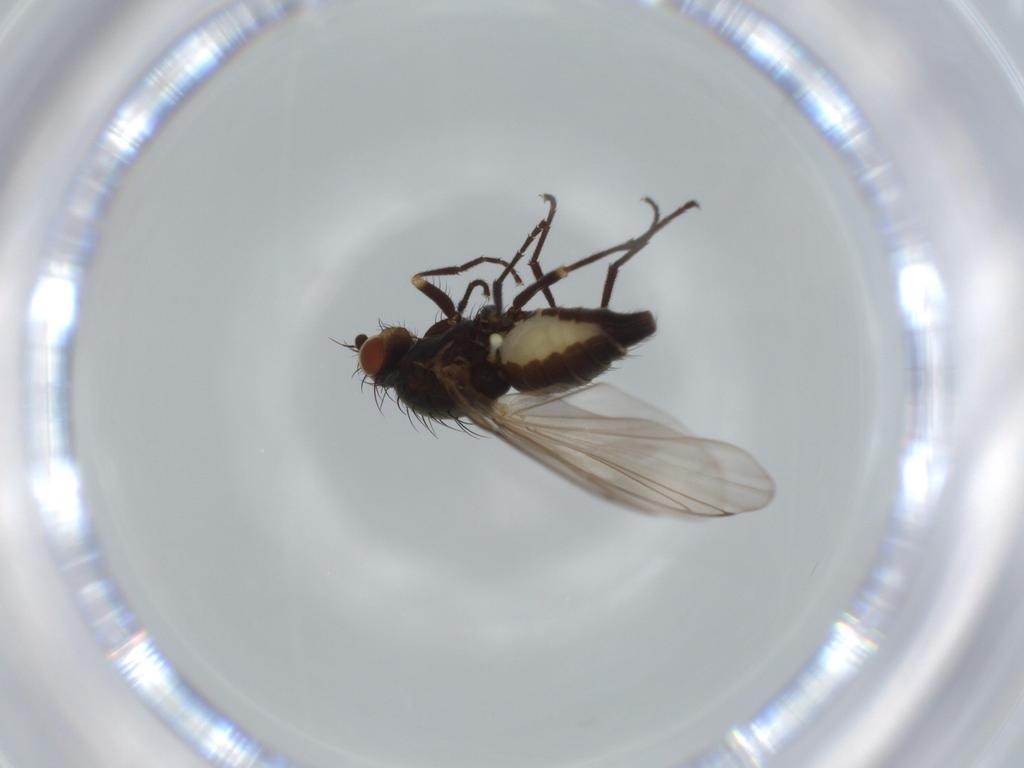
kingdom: Animalia
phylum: Arthropoda
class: Insecta
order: Diptera
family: Agromyzidae
